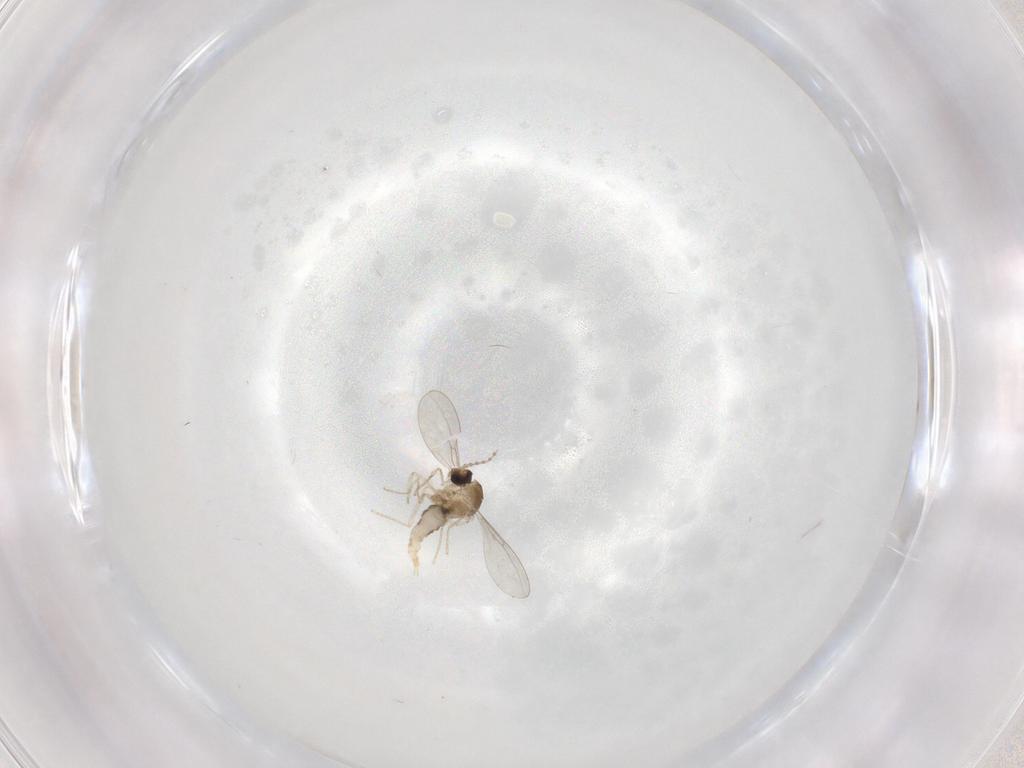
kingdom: Animalia
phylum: Arthropoda
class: Insecta
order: Diptera
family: Cecidomyiidae
